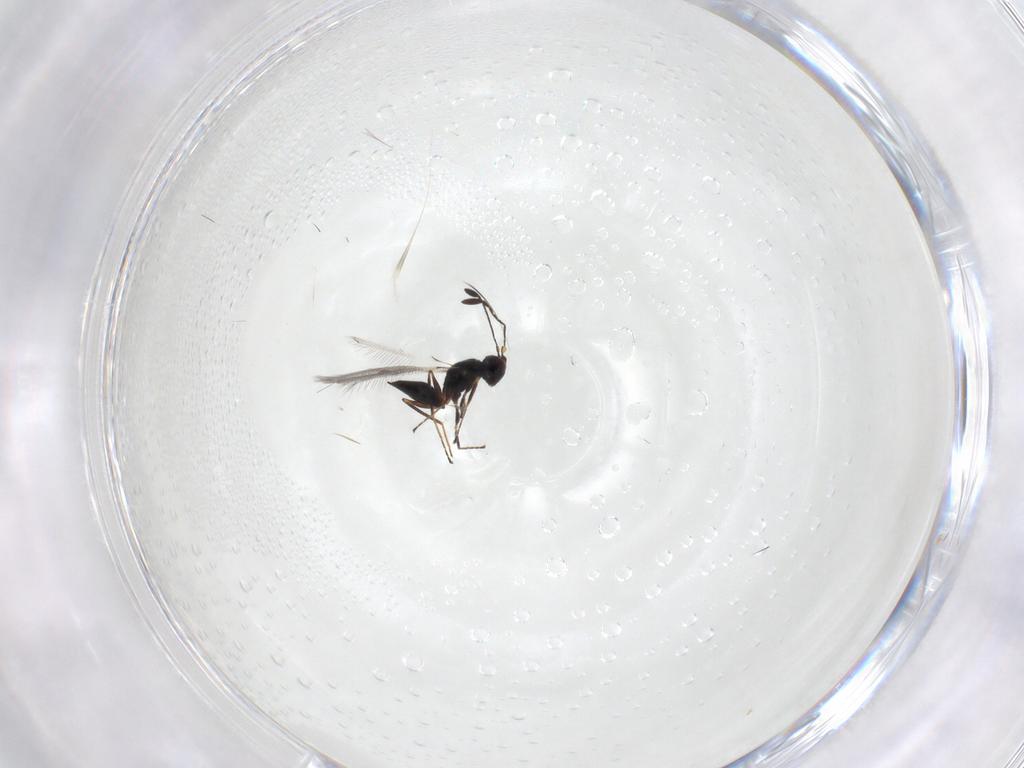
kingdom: Animalia
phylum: Arthropoda
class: Insecta
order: Hymenoptera
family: Mymaridae
